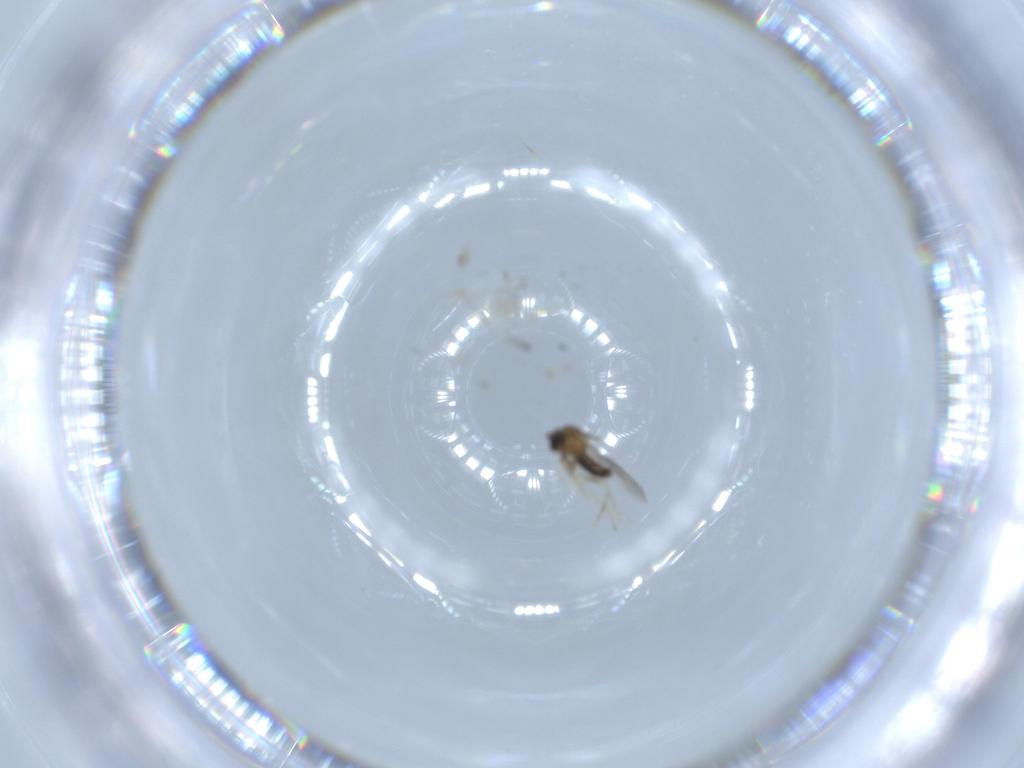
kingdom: Animalia
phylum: Arthropoda
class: Insecta
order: Diptera
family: Cecidomyiidae
